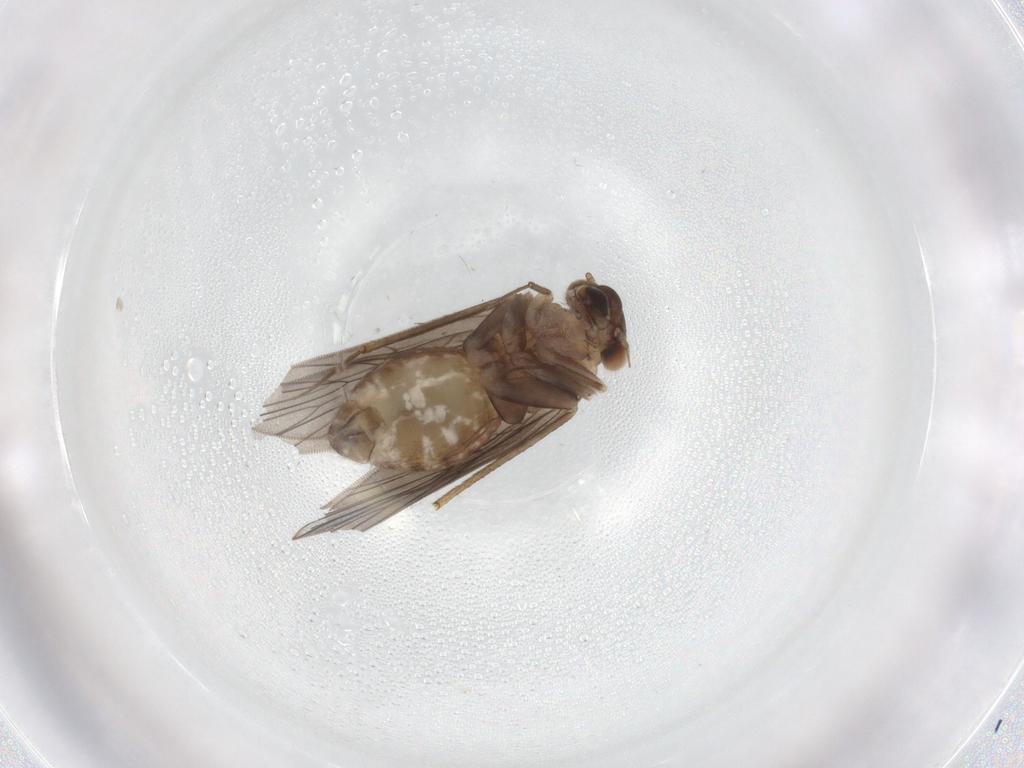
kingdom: Animalia
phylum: Arthropoda
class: Insecta
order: Psocodea
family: Lepidopsocidae
